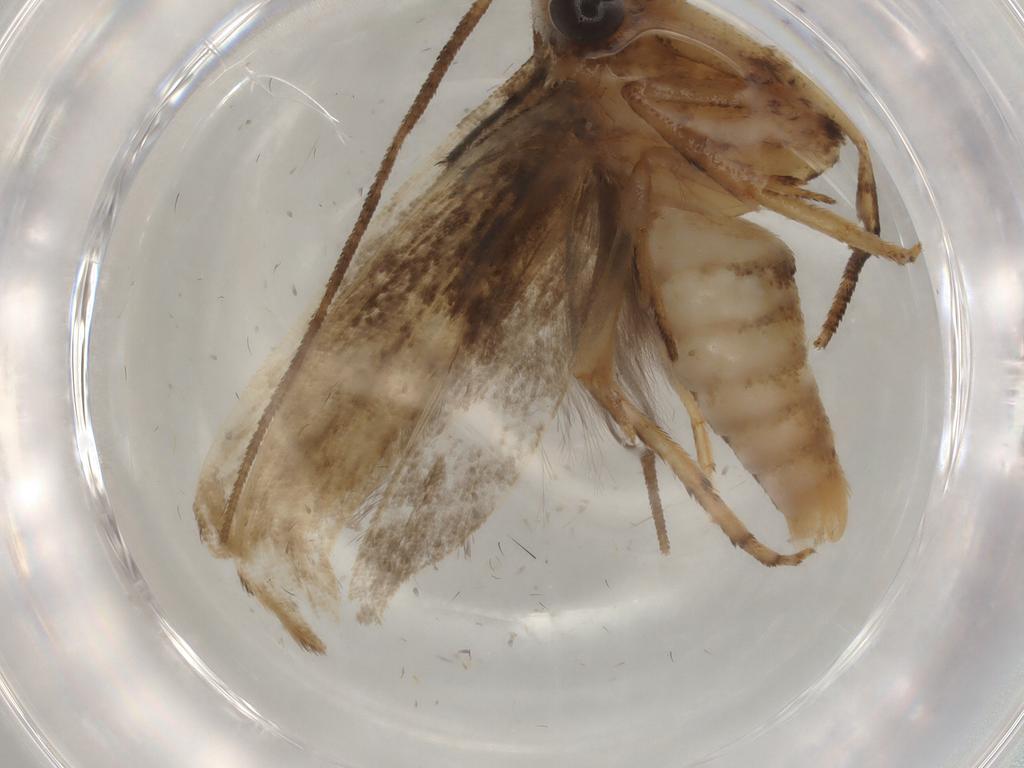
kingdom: Animalia
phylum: Arthropoda
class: Insecta
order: Lepidoptera
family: Yponomeutidae
